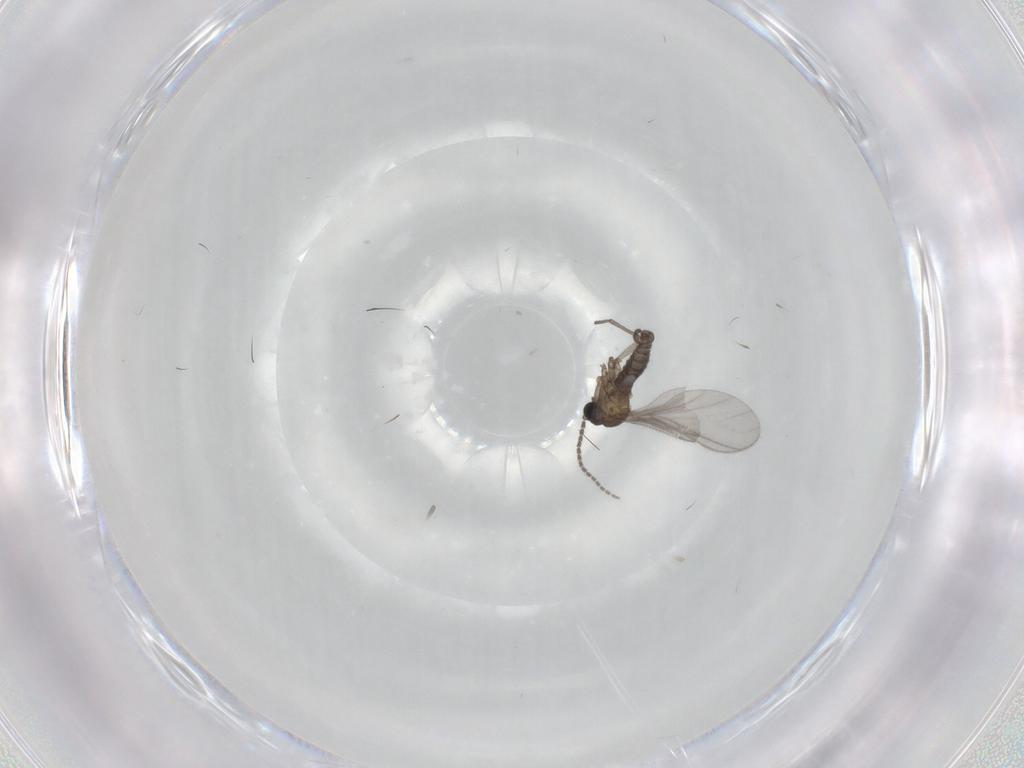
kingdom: Animalia
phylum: Arthropoda
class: Insecta
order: Diptera
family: Sciaridae
